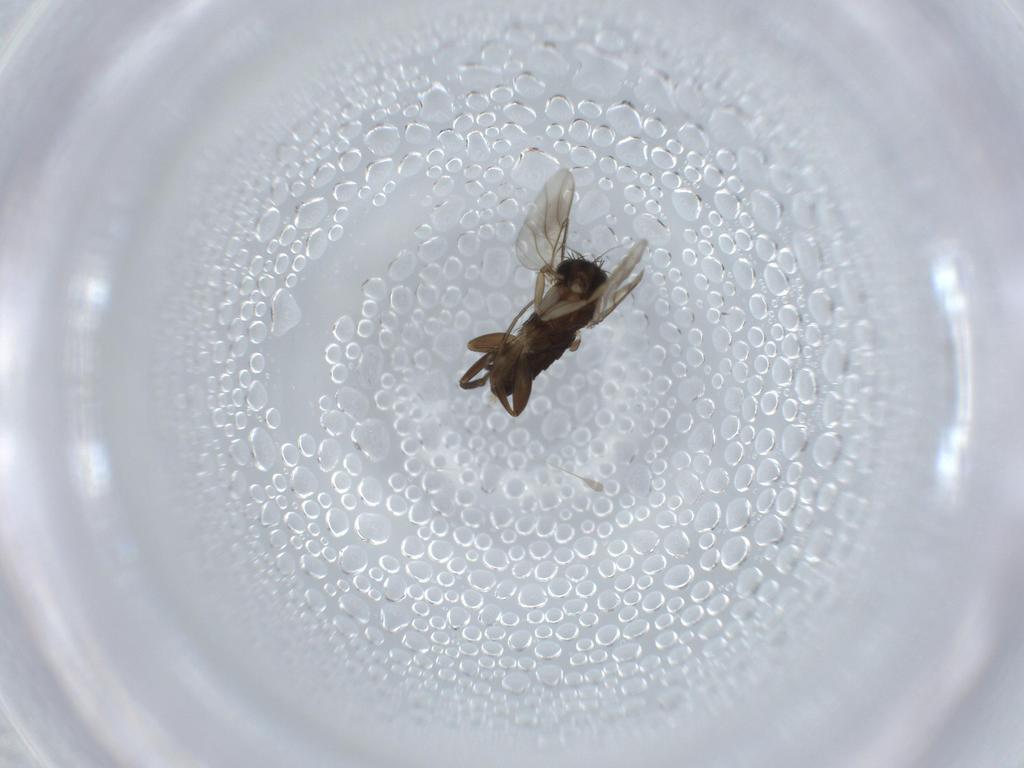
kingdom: Animalia
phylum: Arthropoda
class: Insecta
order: Diptera
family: Phoridae
